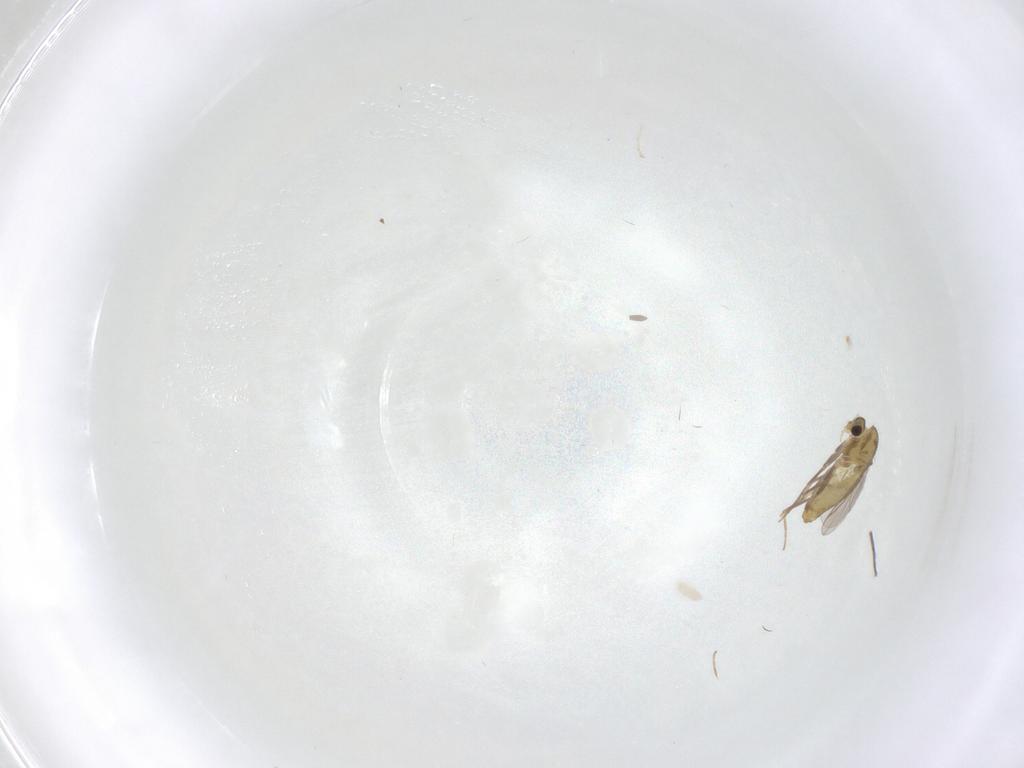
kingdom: Animalia
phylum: Arthropoda
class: Insecta
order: Diptera
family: Chironomidae
